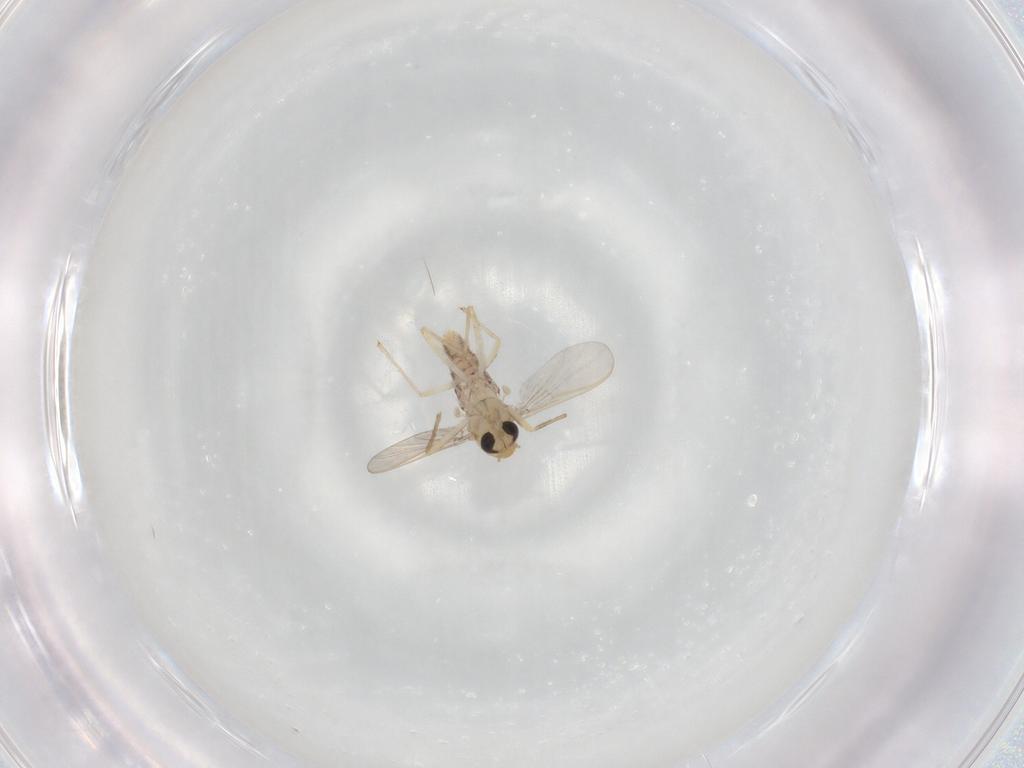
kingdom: Animalia
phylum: Arthropoda
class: Insecta
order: Diptera
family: Chironomidae
